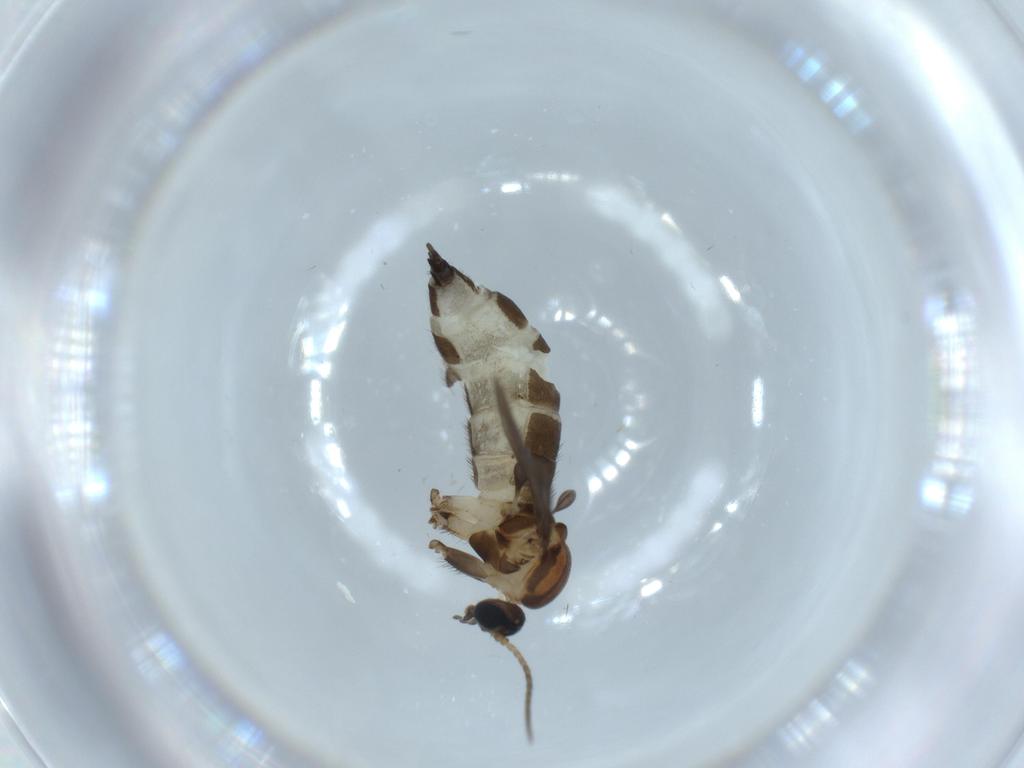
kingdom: Animalia
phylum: Arthropoda
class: Insecta
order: Diptera
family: Sciaridae
